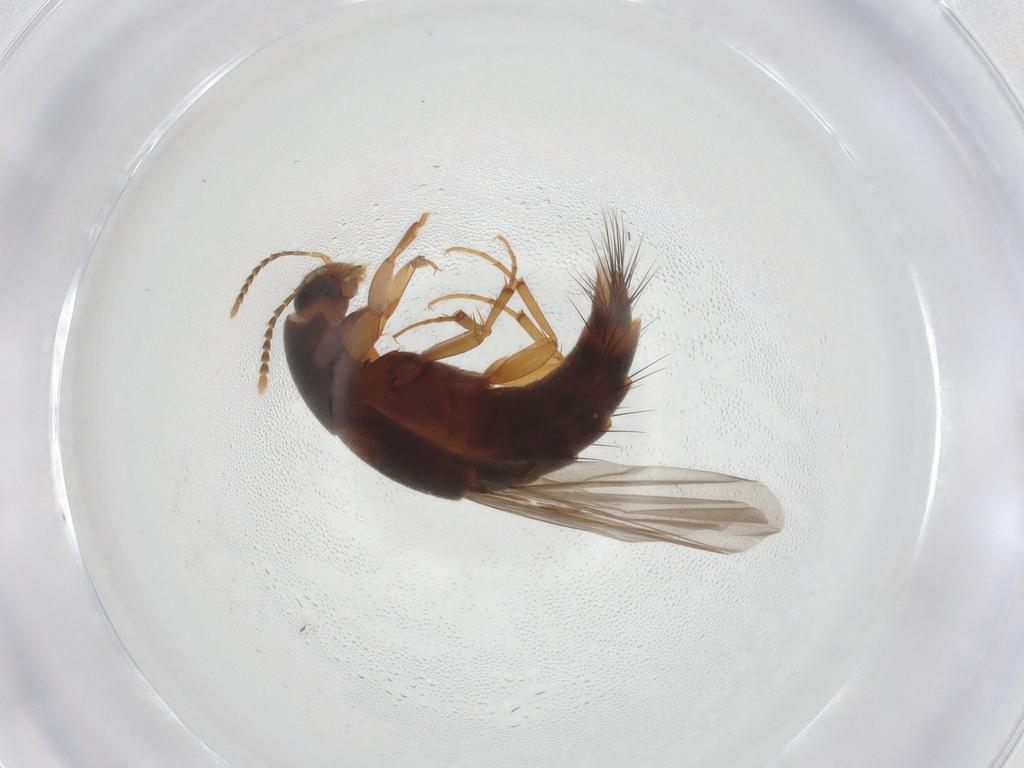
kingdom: Animalia
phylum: Arthropoda
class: Insecta
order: Coleoptera
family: Staphylinidae
